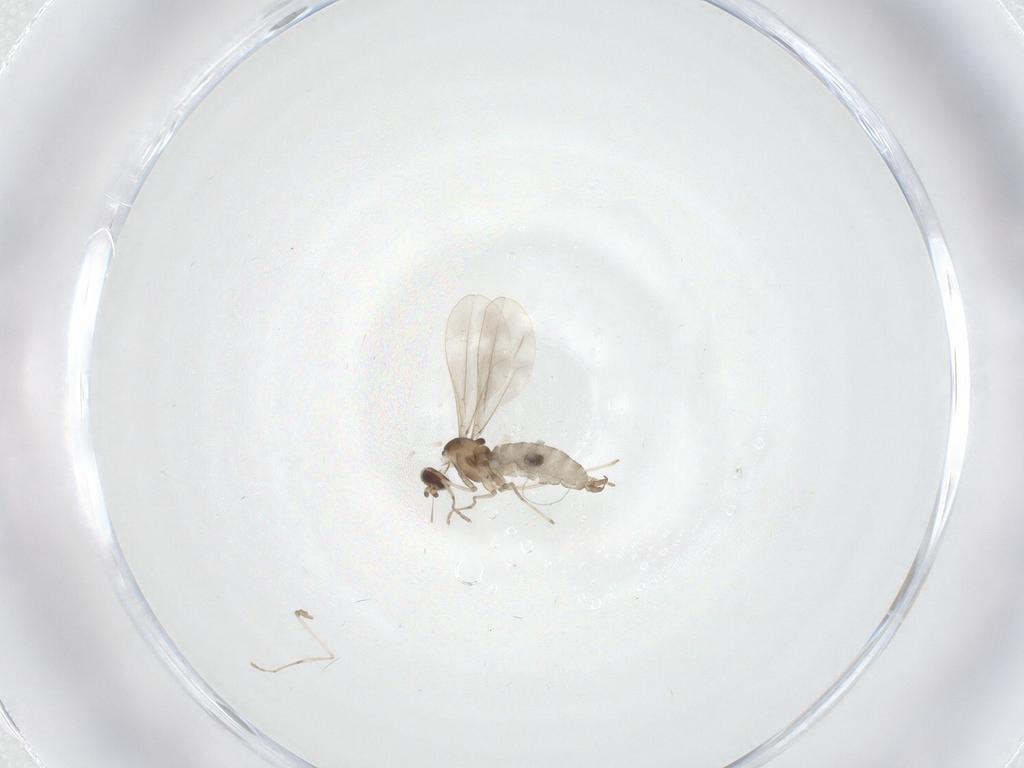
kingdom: Animalia
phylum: Arthropoda
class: Insecta
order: Diptera
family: Cecidomyiidae
